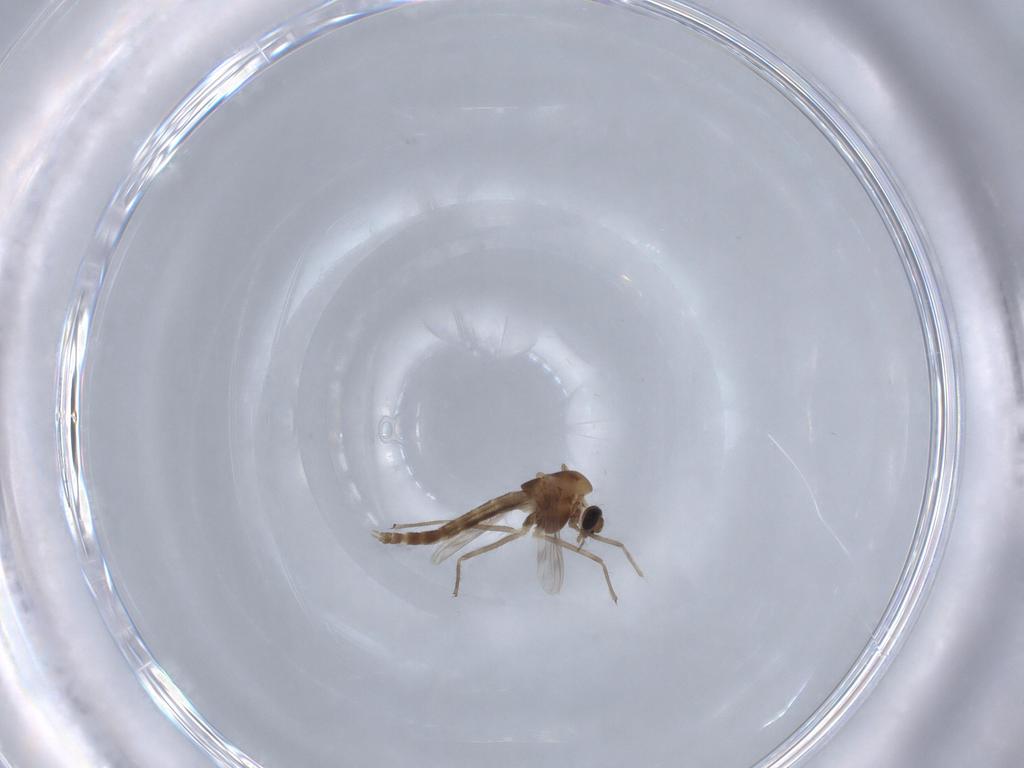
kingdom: Animalia
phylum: Arthropoda
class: Insecta
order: Diptera
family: Chironomidae
